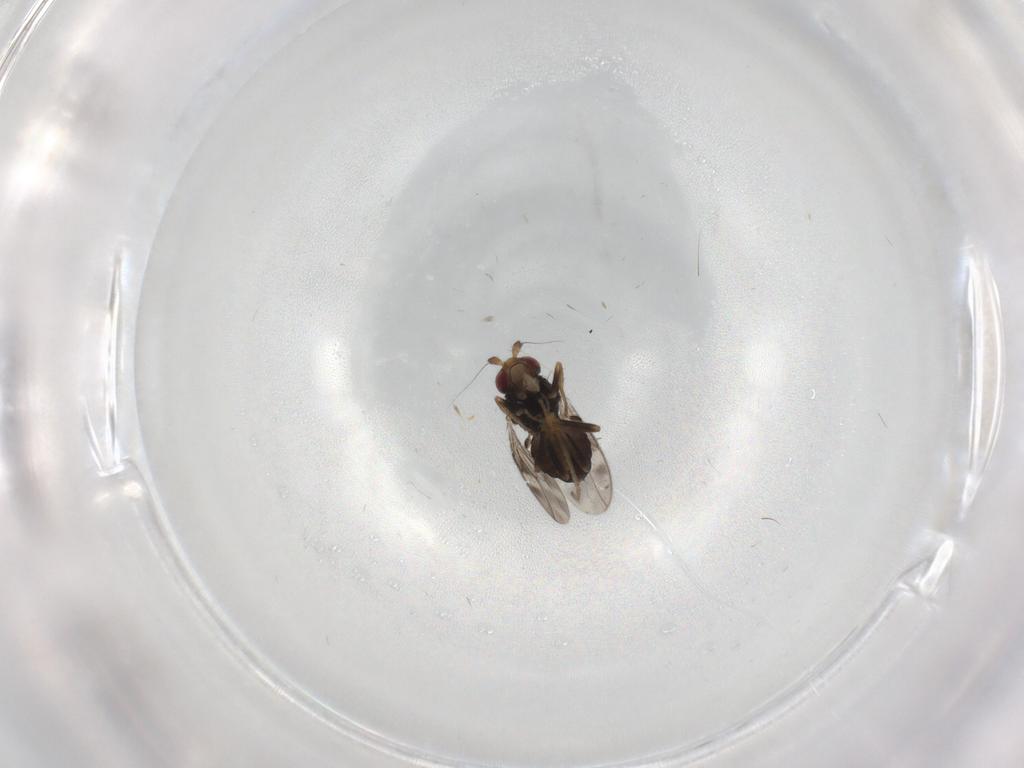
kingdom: Animalia
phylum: Arthropoda
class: Insecta
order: Diptera
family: Sphaeroceridae
